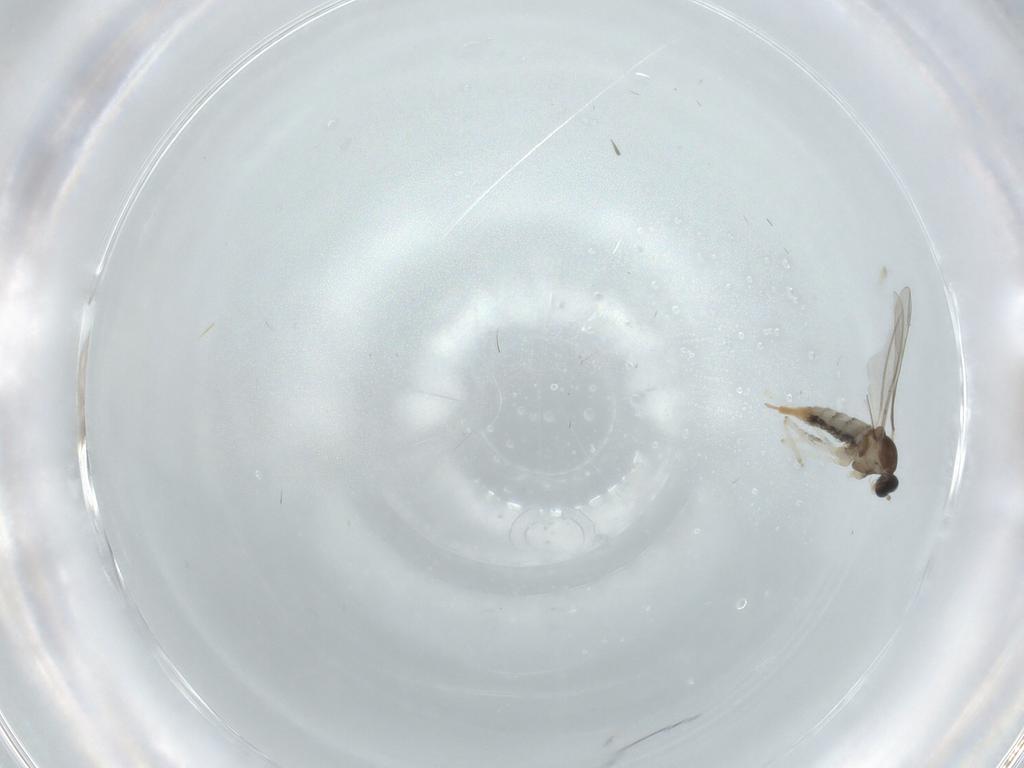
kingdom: Animalia
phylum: Arthropoda
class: Insecta
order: Diptera
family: Cecidomyiidae
